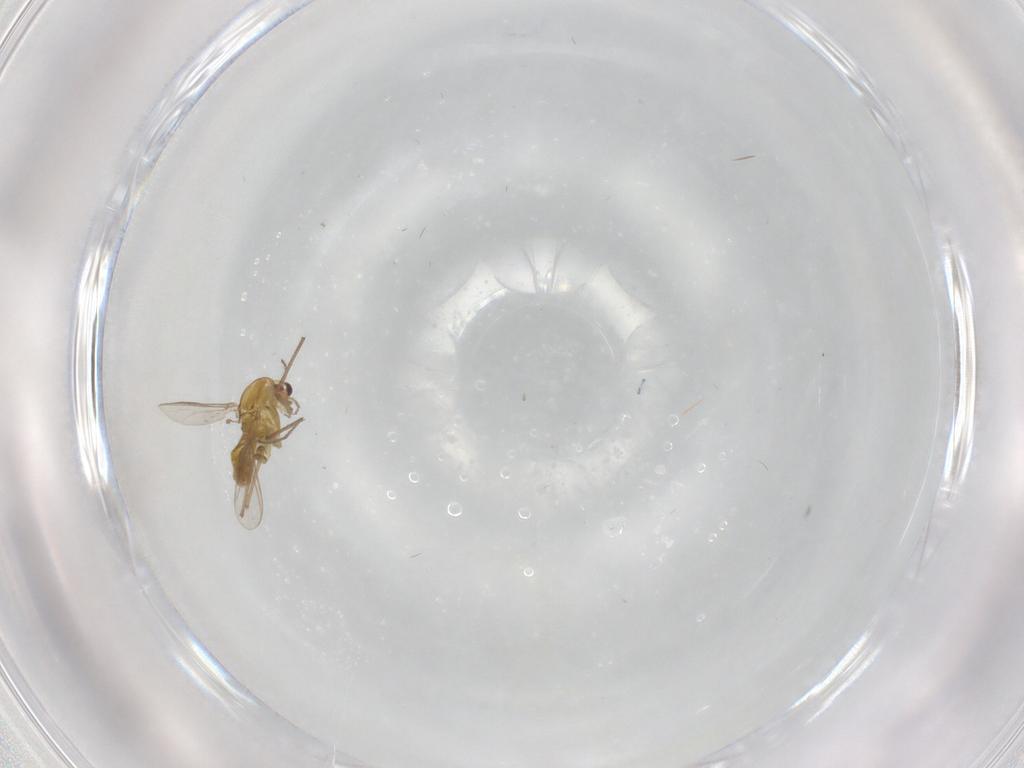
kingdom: Animalia
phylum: Arthropoda
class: Insecta
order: Diptera
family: Chironomidae
